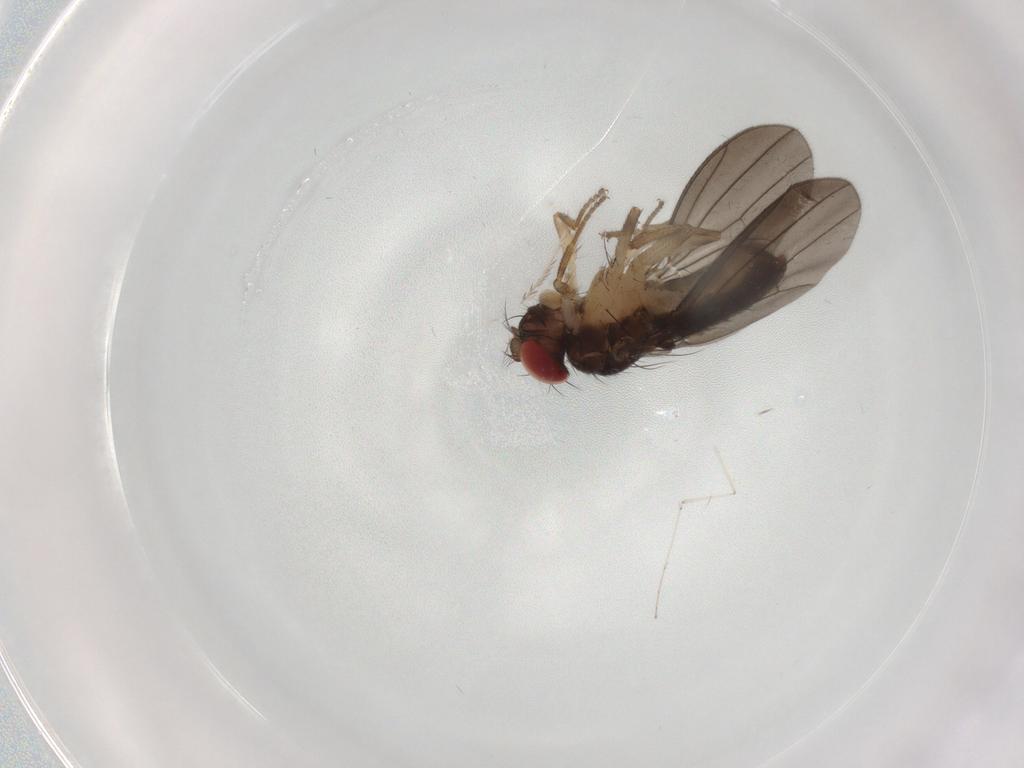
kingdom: Animalia
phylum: Arthropoda
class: Insecta
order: Diptera
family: Drosophilidae
